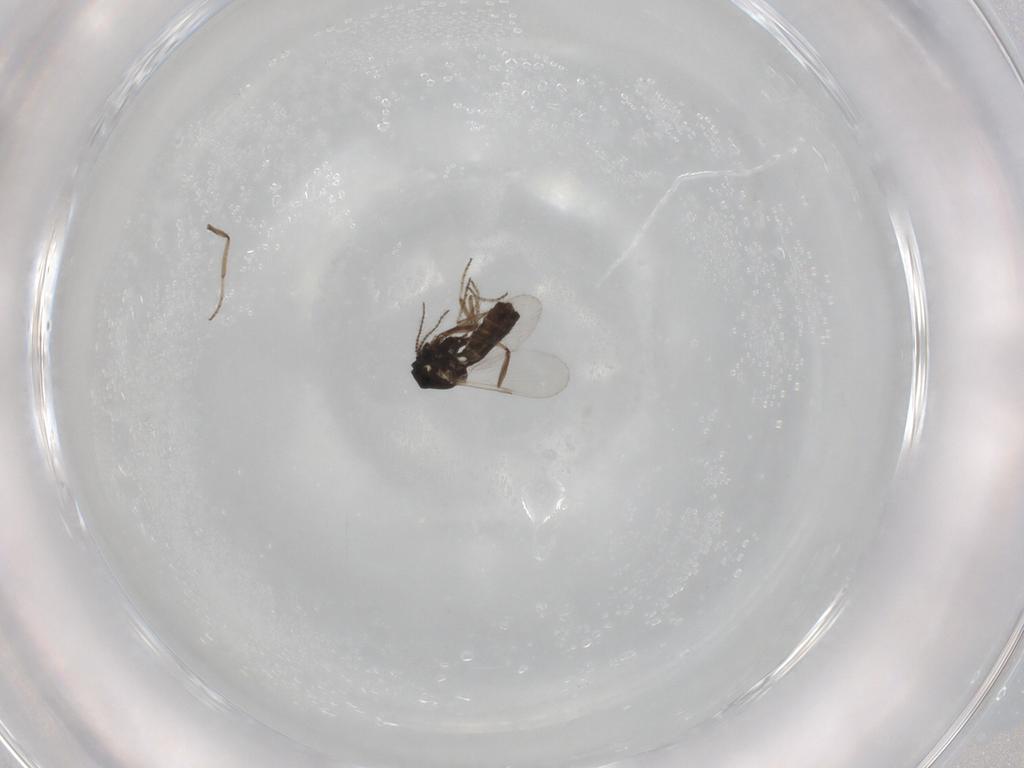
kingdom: Animalia
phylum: Arthropoda
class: Insecta
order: Diptera
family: Ceratopogonidae
